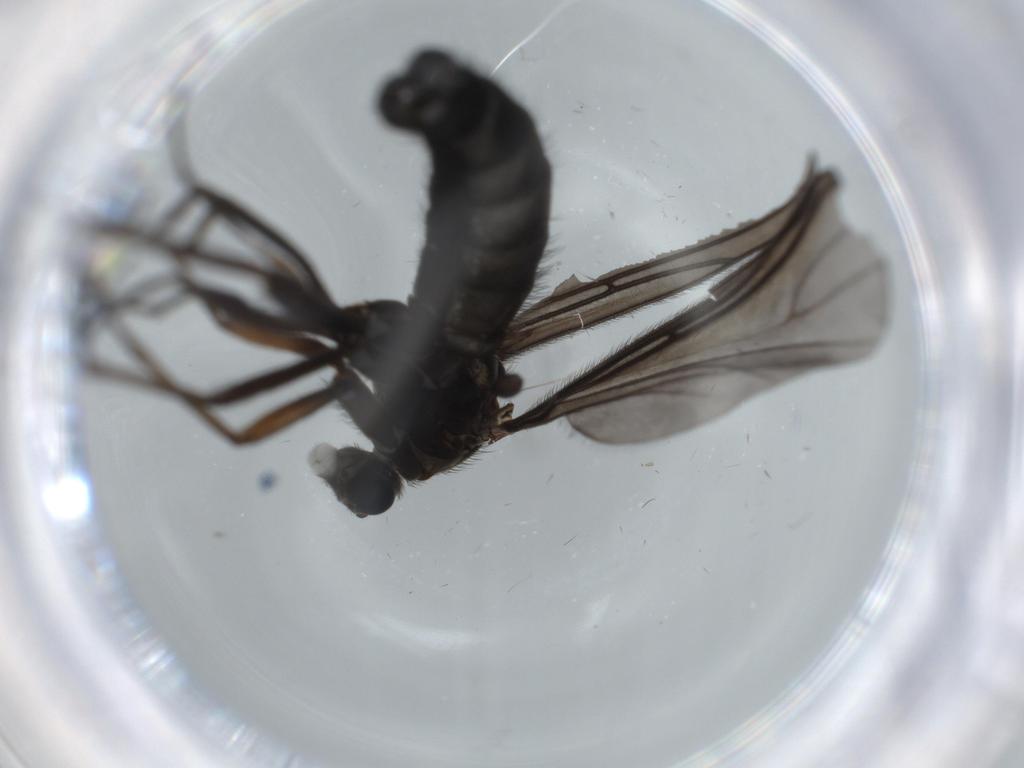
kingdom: Animalia
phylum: Arthropoda
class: Insecta
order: Diptera
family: Sciaridae
